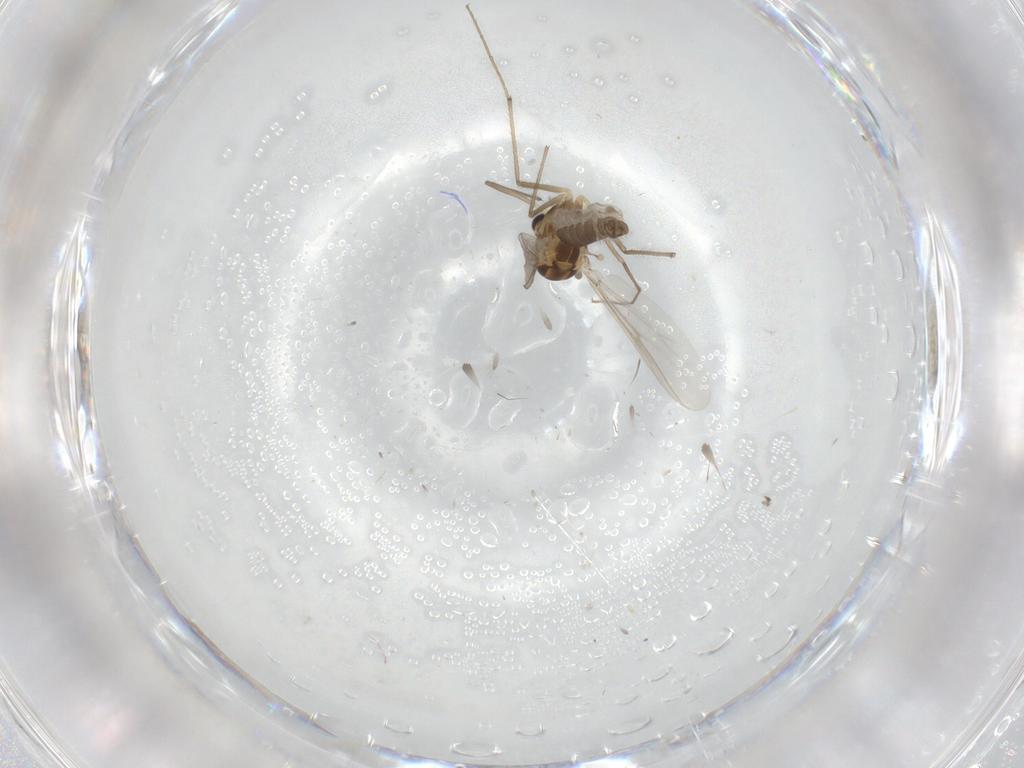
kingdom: Animalia
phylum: Arthropoda
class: Insecta
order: Diptera
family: Chironomidae
